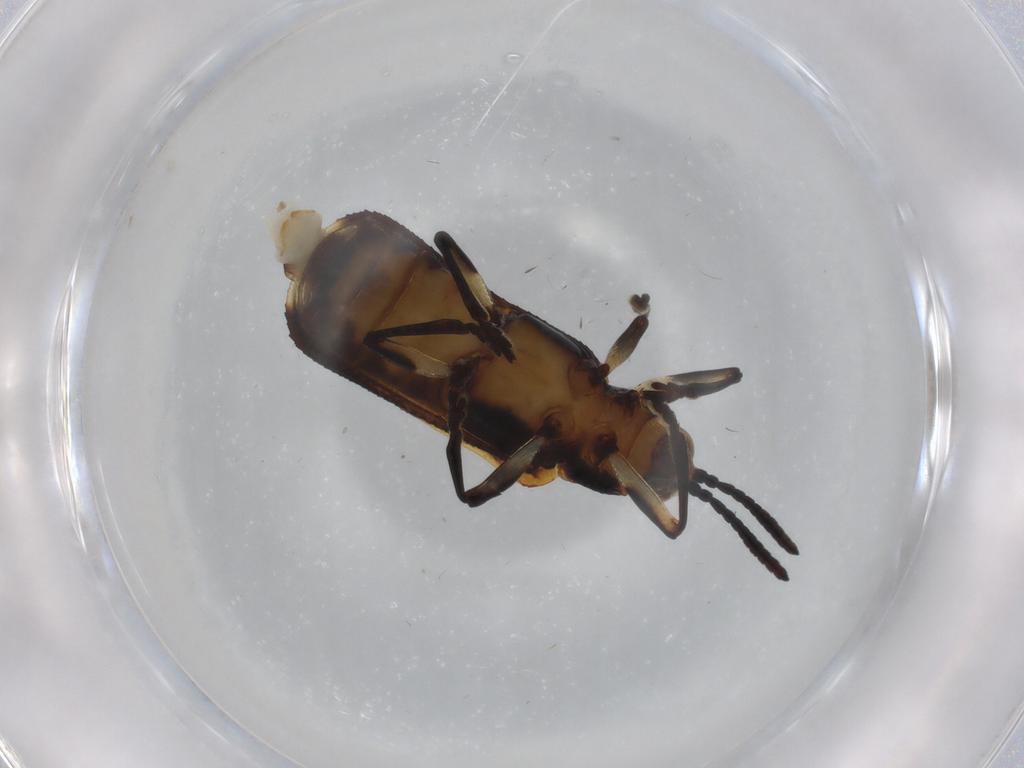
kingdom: Animalia
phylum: Arthropoda
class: Insecta
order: Coleoptera
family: Chrysomelidae
